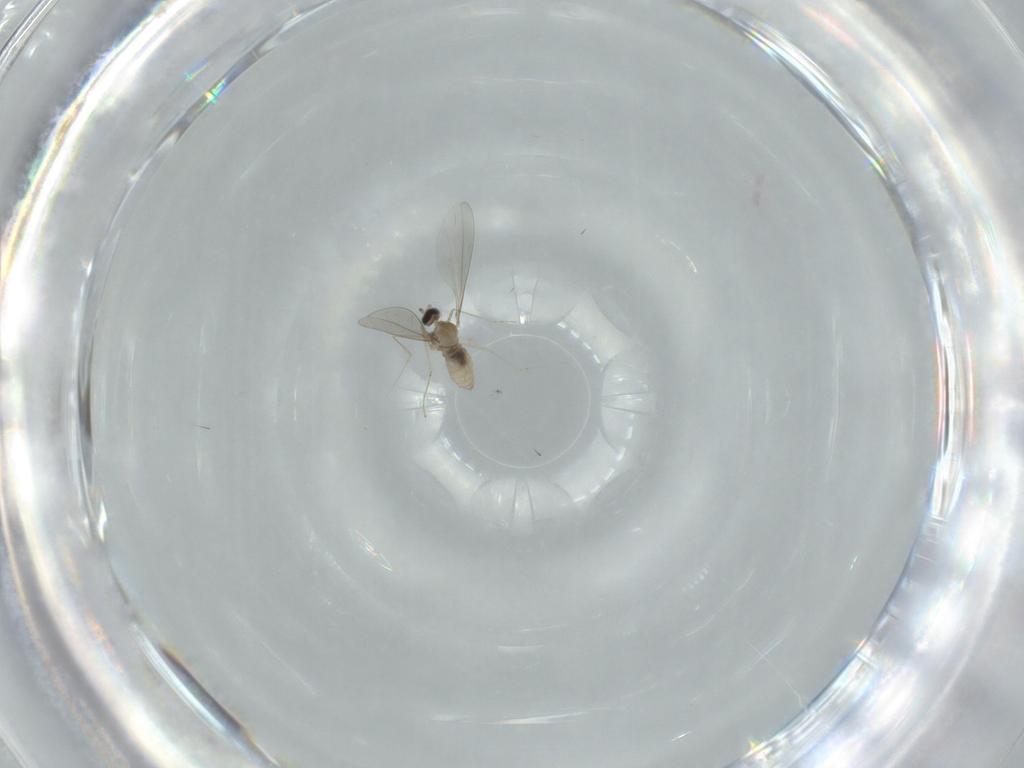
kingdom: Animalia
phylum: Arthropoda
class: Insecta
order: Diptera
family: Cecidomyiidae
